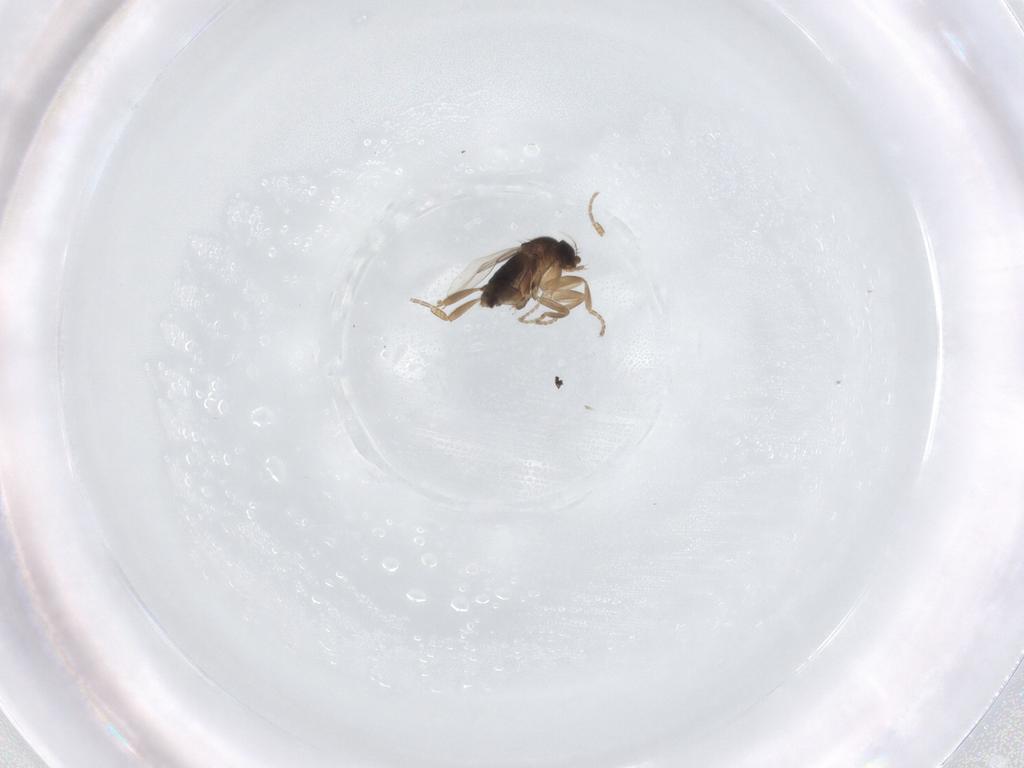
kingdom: Animalia
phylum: Arthropoda
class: Insecta
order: Diptera
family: Cecidomyiidae
